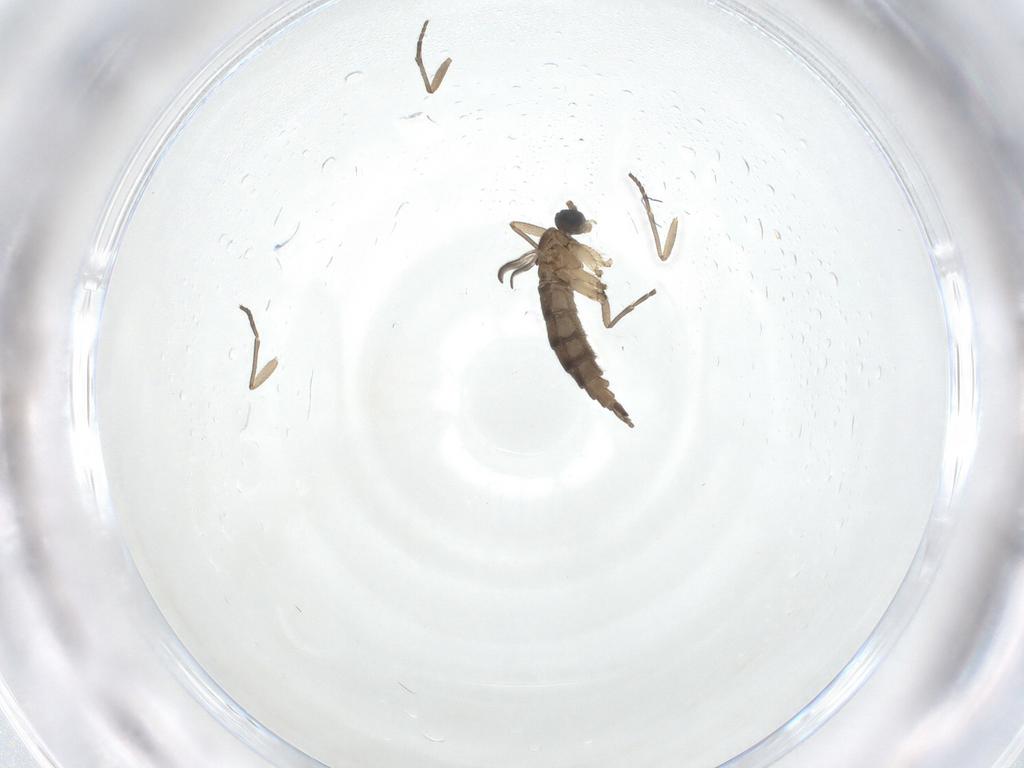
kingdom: Animalia
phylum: Arthropoda
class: Insecta
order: Diptera
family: Sciaridae
